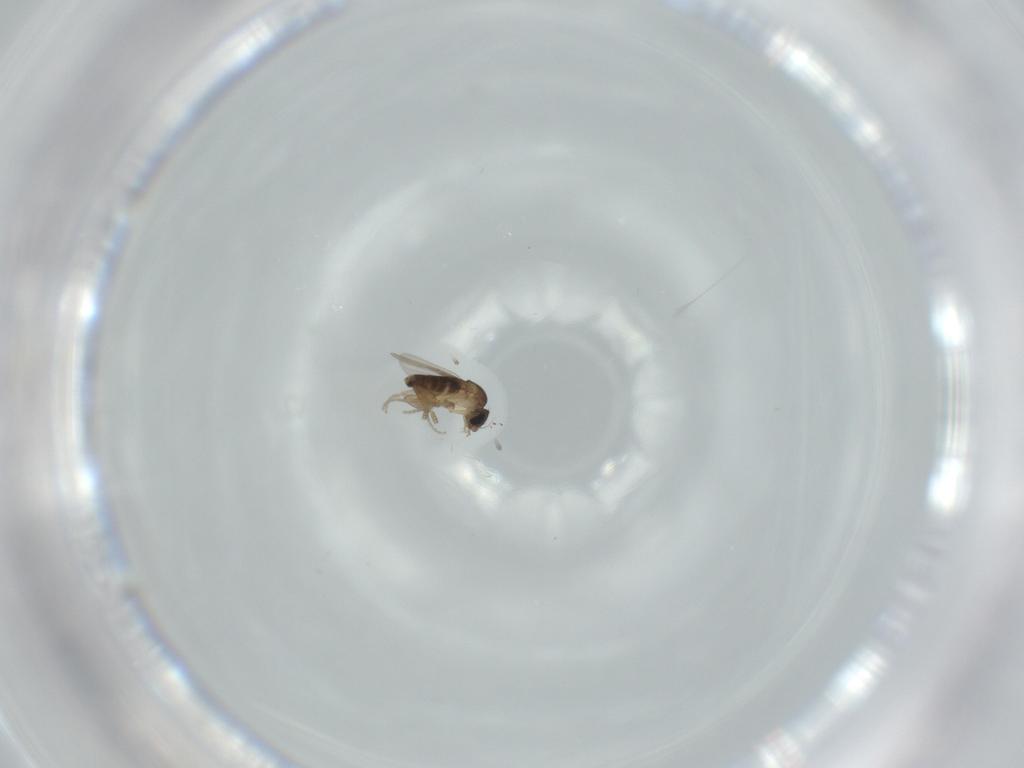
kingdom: Animalia
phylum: Arthropoda
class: Insecta
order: Diptera
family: Phoridae
